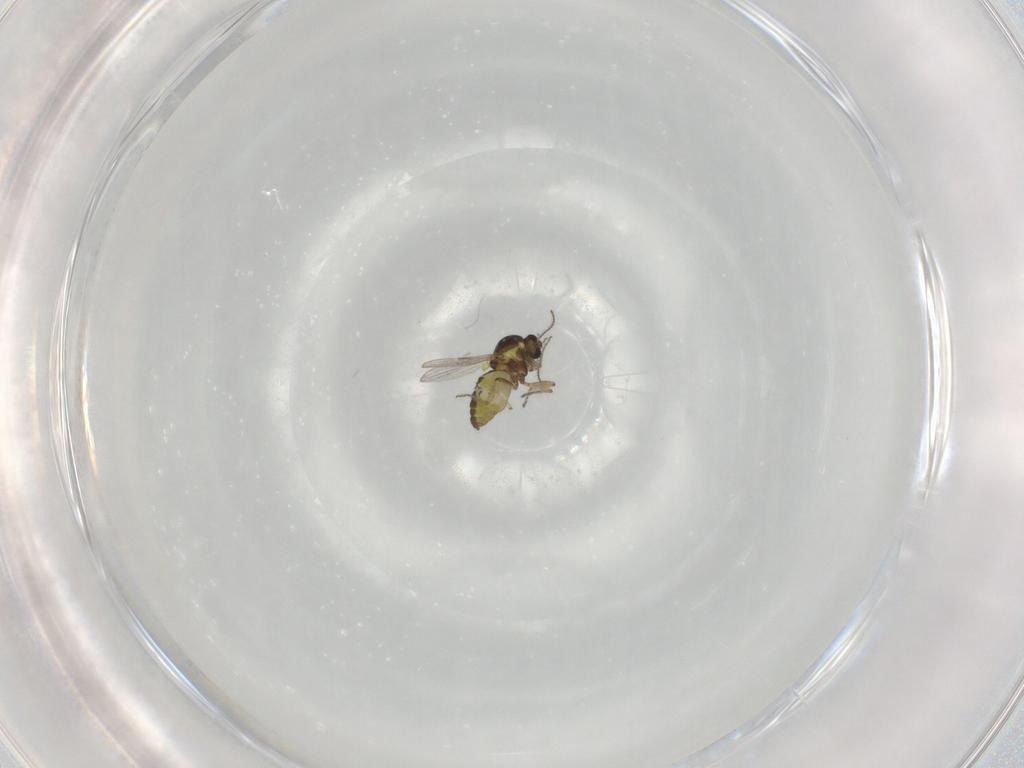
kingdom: Animalia
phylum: Arthropoda
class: Insecta
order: Diptera
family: Ceratopogonidae
